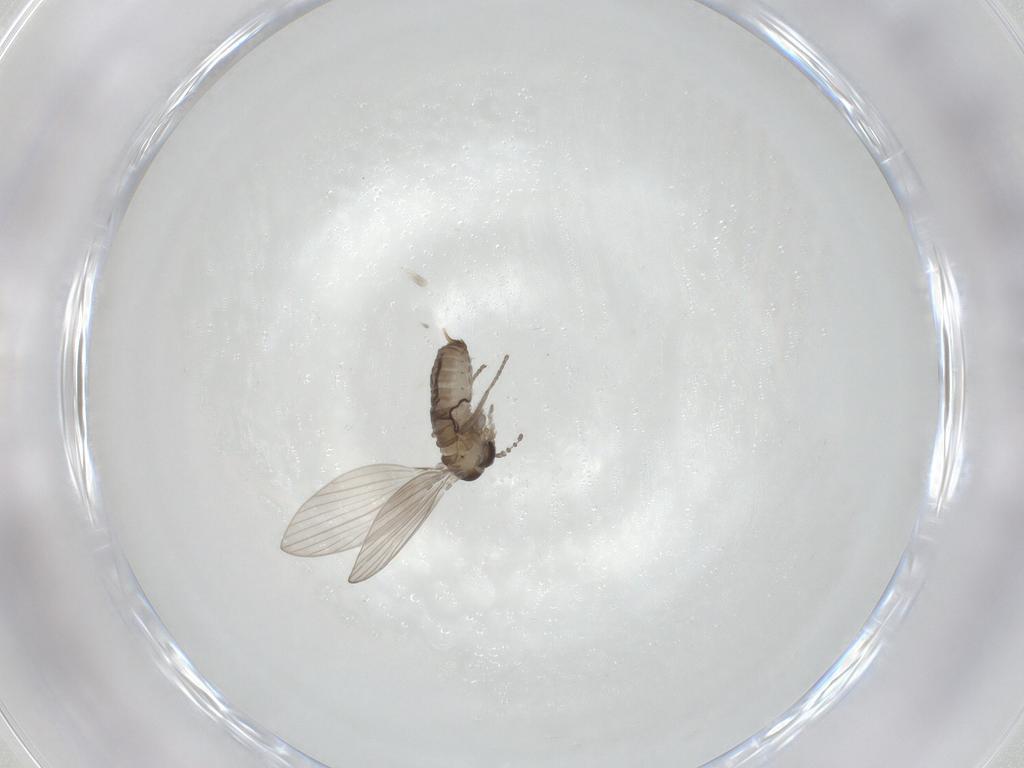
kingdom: Animalia
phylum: Arthropoda
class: Insecta
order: Diptera
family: Psychodidae
